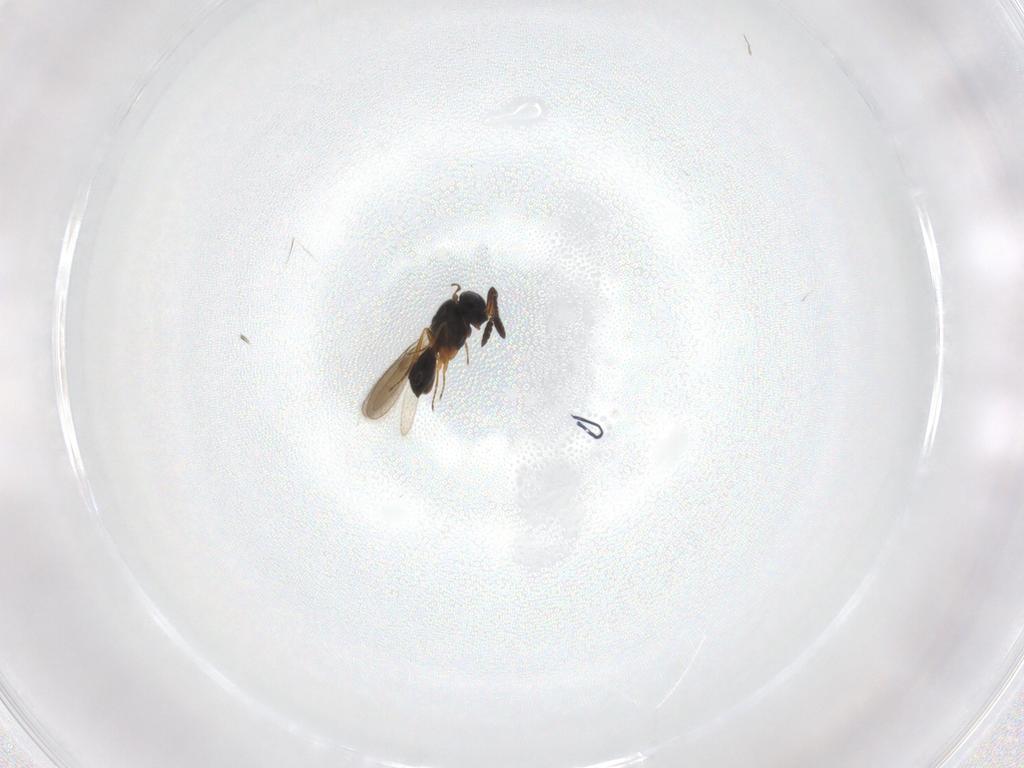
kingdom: Animalia
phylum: Arthropoda
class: Insecta
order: Hymenoptera
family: Scelionidae
